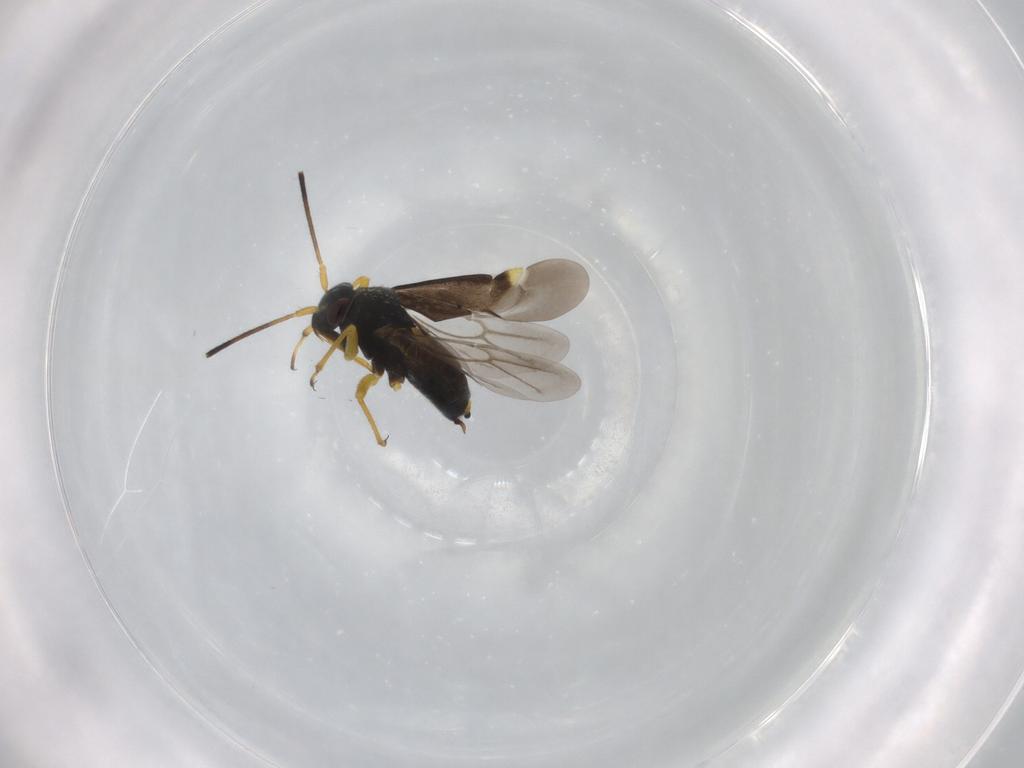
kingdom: Animalia
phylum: Arthropoda
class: Insecta
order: Hemiptera
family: Miridae
